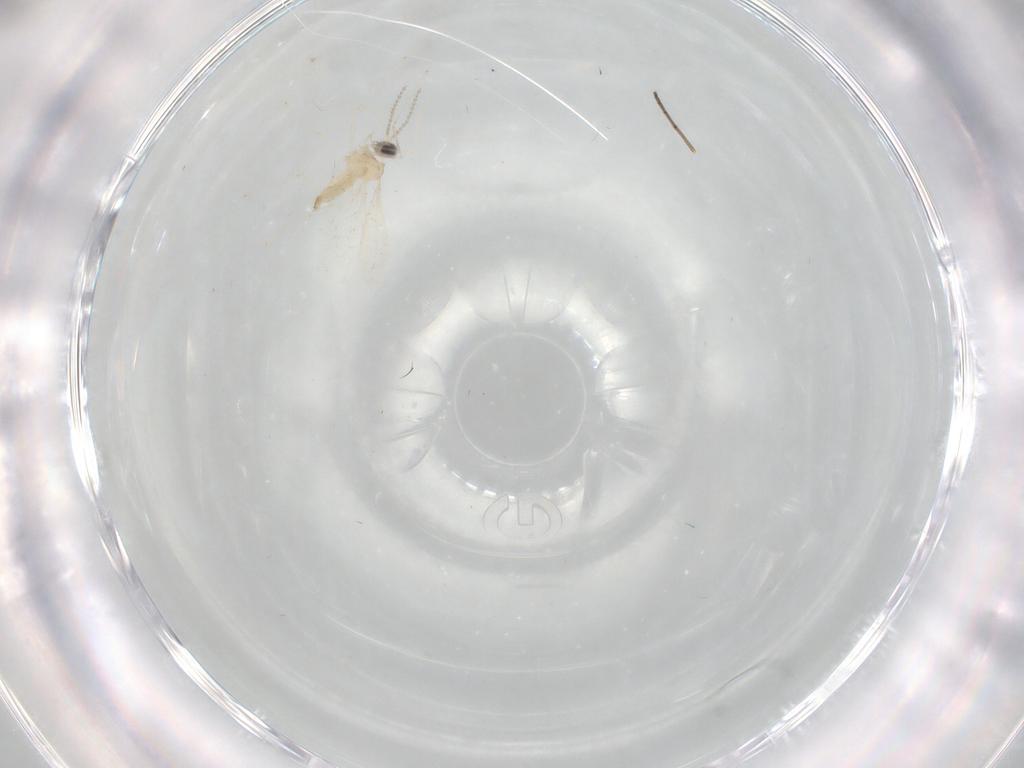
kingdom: Animalia
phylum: Arthropoda
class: Insecta
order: Diptera
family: Cecidomyiidae
